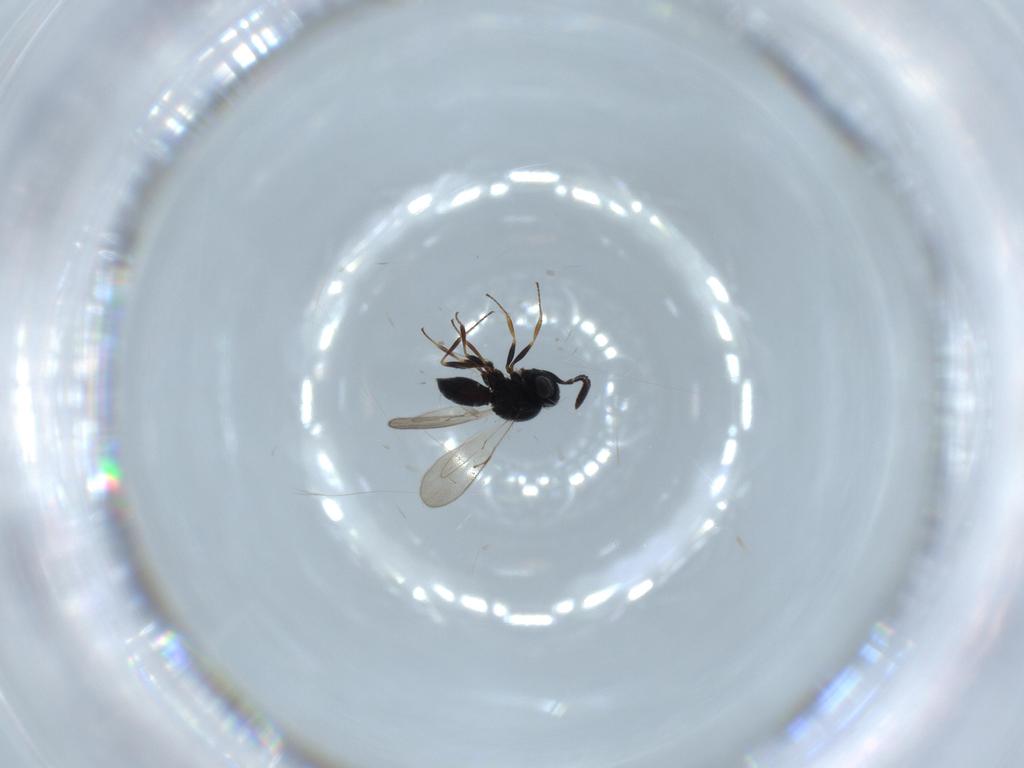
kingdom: Animalia
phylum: Arthropoda
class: Insecta
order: Hymenoptera
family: Scelionidae
